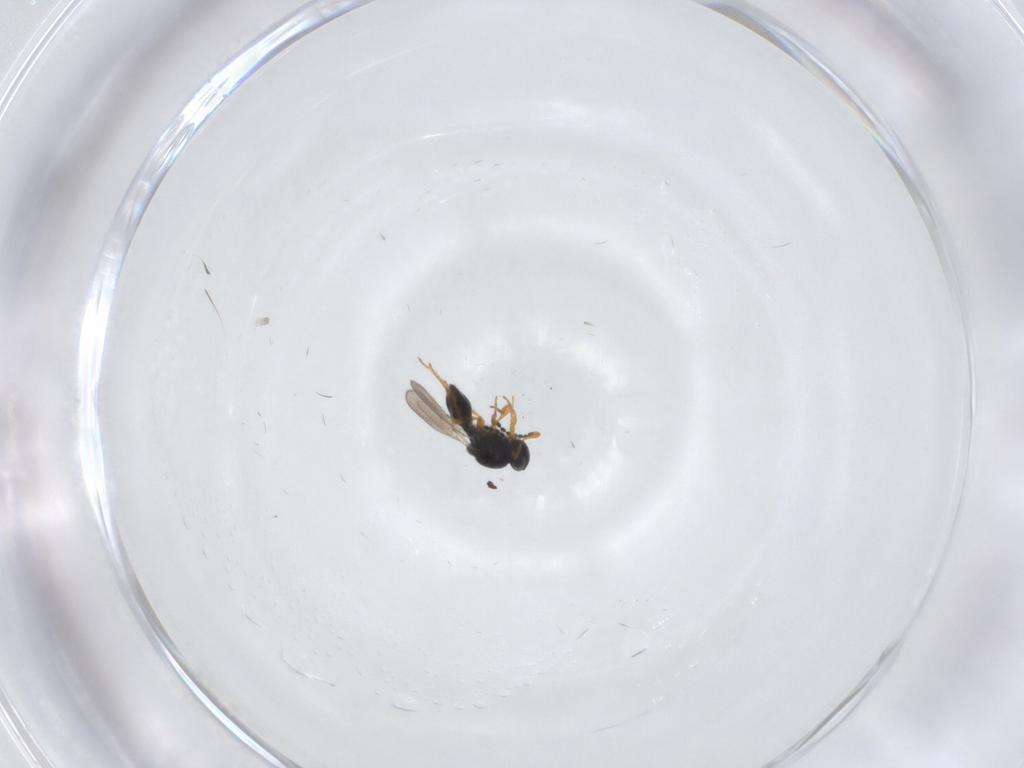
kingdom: Animalia
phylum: Arthropoda
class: Insecta
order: Hymenoptera
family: Platygastridae
